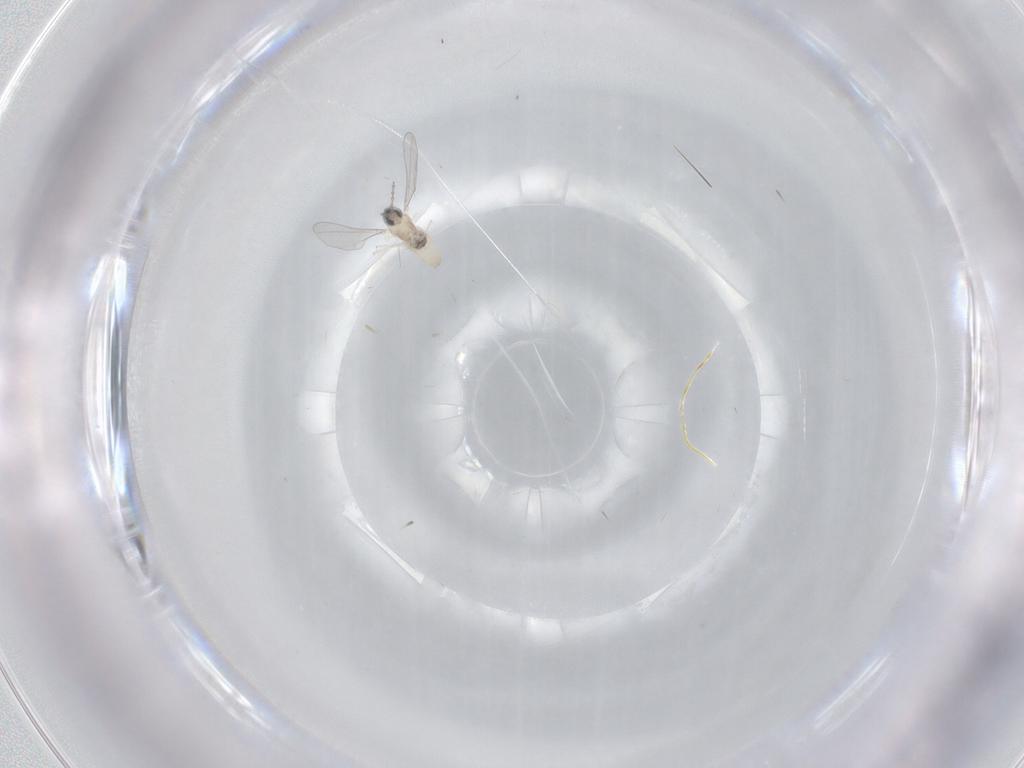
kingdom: Animalia
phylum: Arthropoda
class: Insecta
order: Diptera
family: Cecidomyiidae
